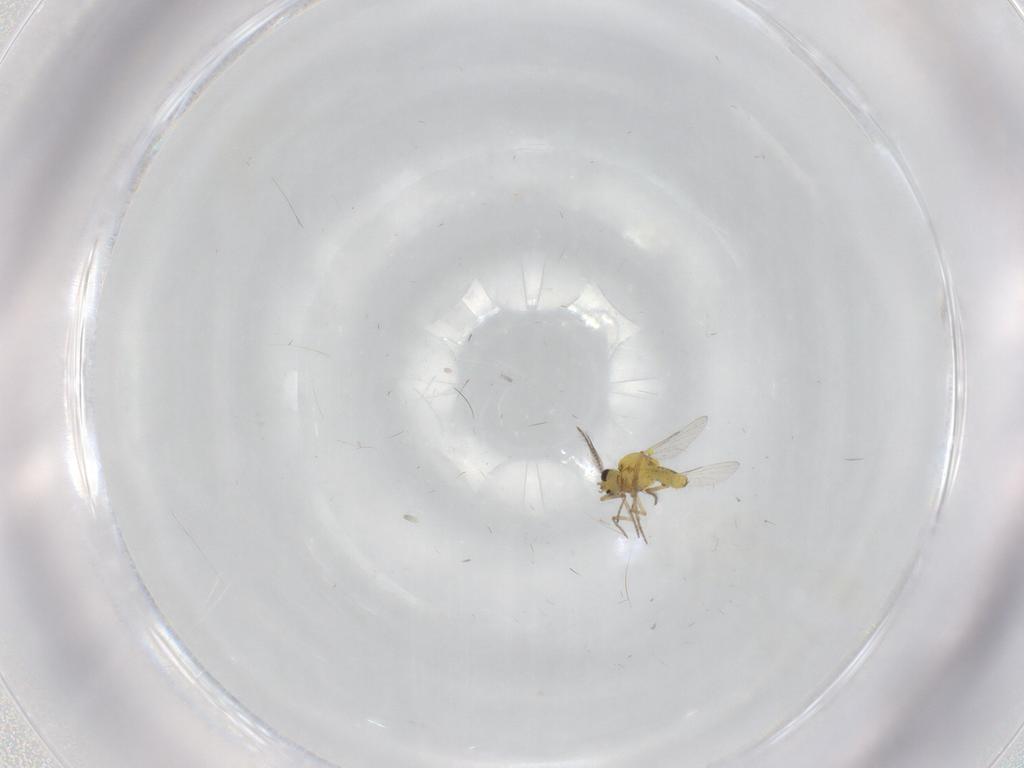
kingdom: Animalia
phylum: Arthropoda
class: Insecta
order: Diptera
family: Ceratopogonidae
